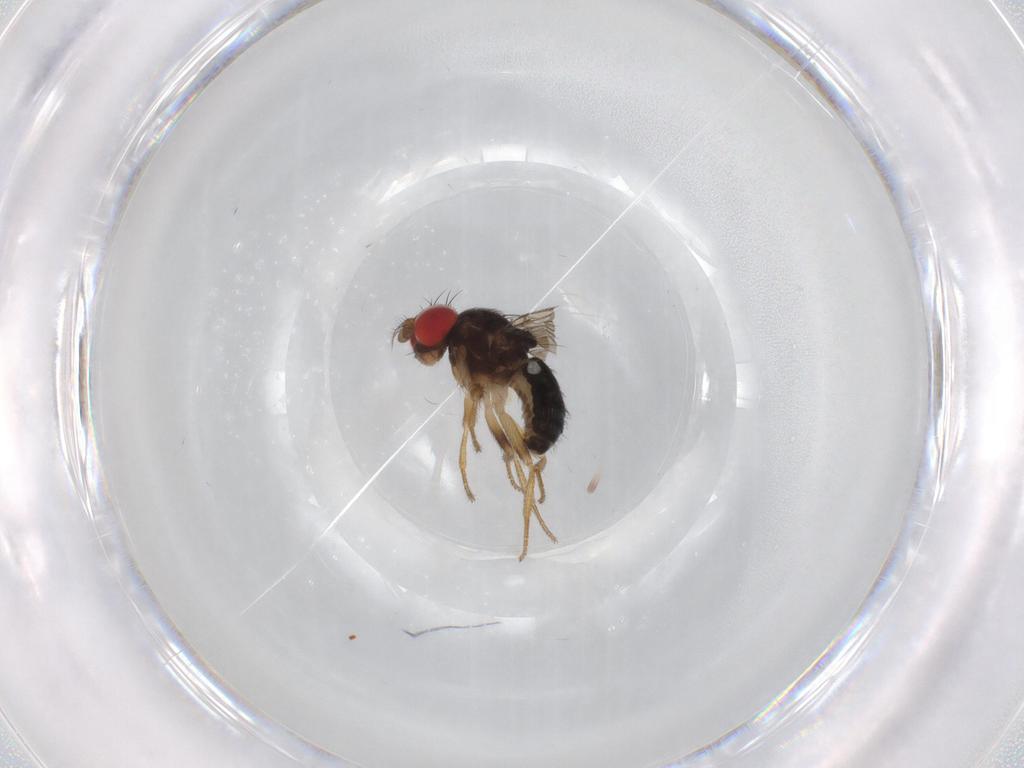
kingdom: Animalia
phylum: Arthropoda
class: Insecta
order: Diptera
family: Drosophilidae
